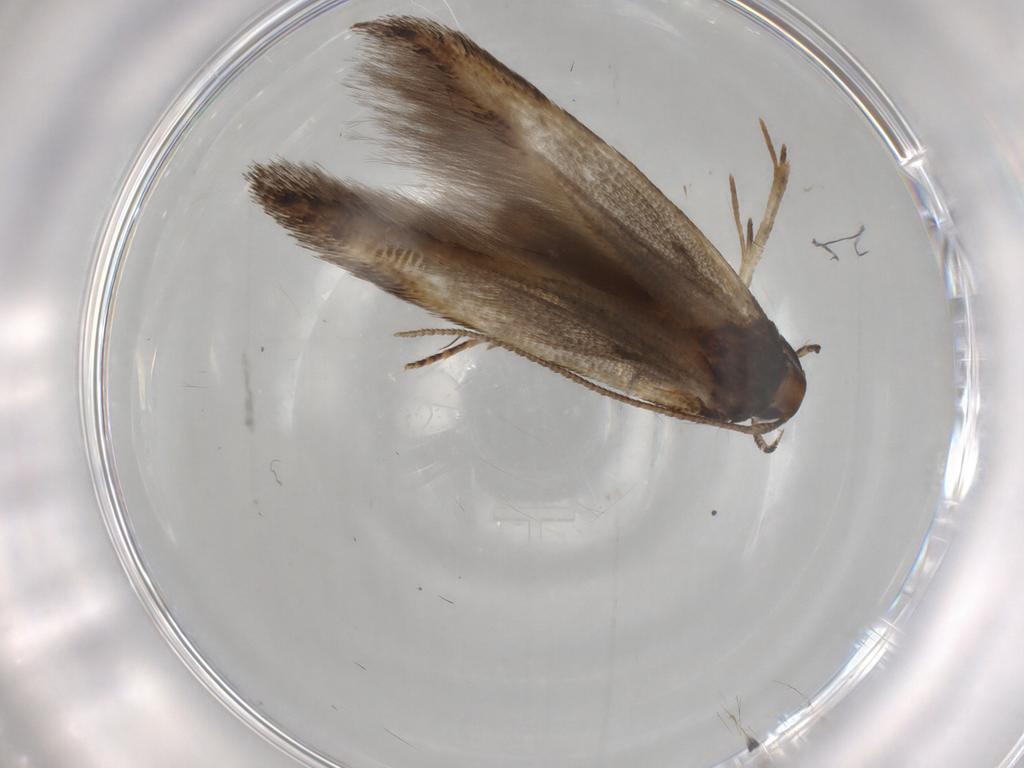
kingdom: Animalia
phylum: Arthropoda
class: Insecta
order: Lepidoptera
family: Cosmopterigidae
